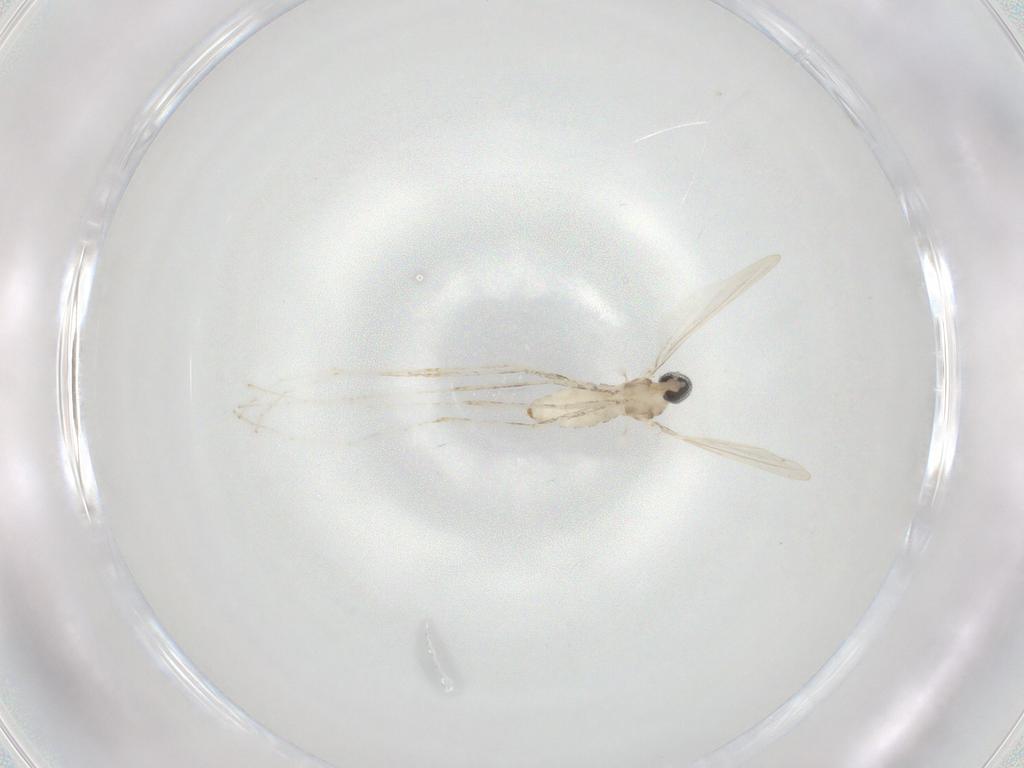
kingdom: Animalia
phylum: Arthropoda
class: Insecta
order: Diptera
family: Cecidomyiidae
